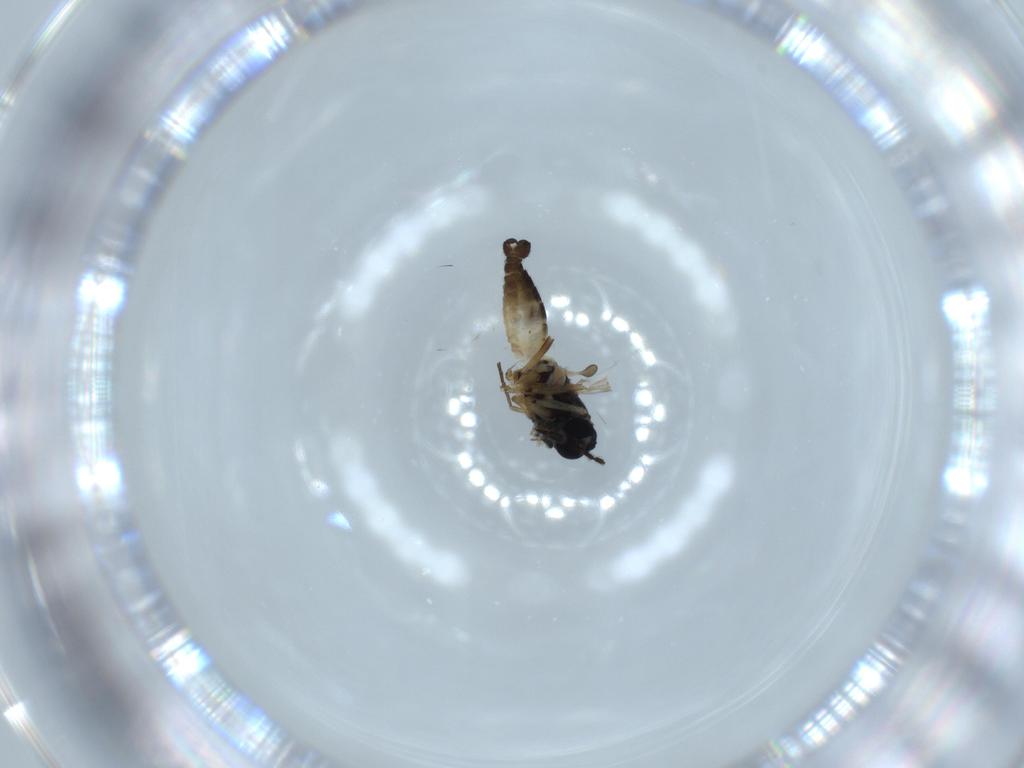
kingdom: Animalia
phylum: Arthropoda
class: Insecta
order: Diptera
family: Sciaridae
